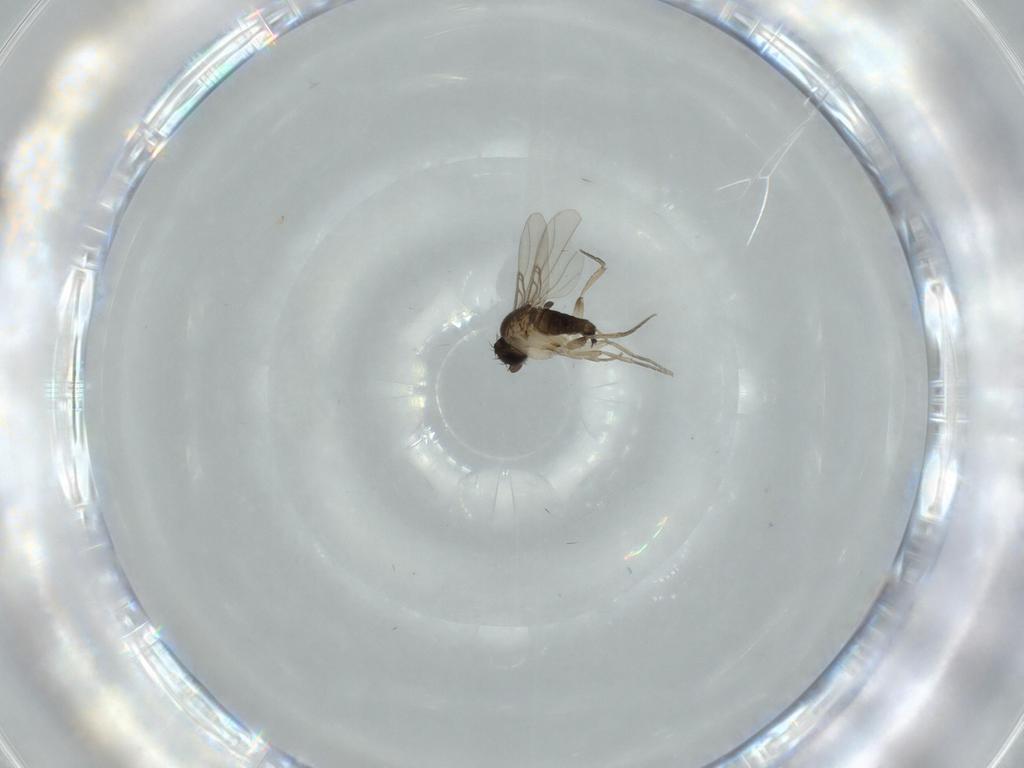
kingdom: Animalia
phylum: Arthropoda
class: Insecta
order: Diptera
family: Phoridae
